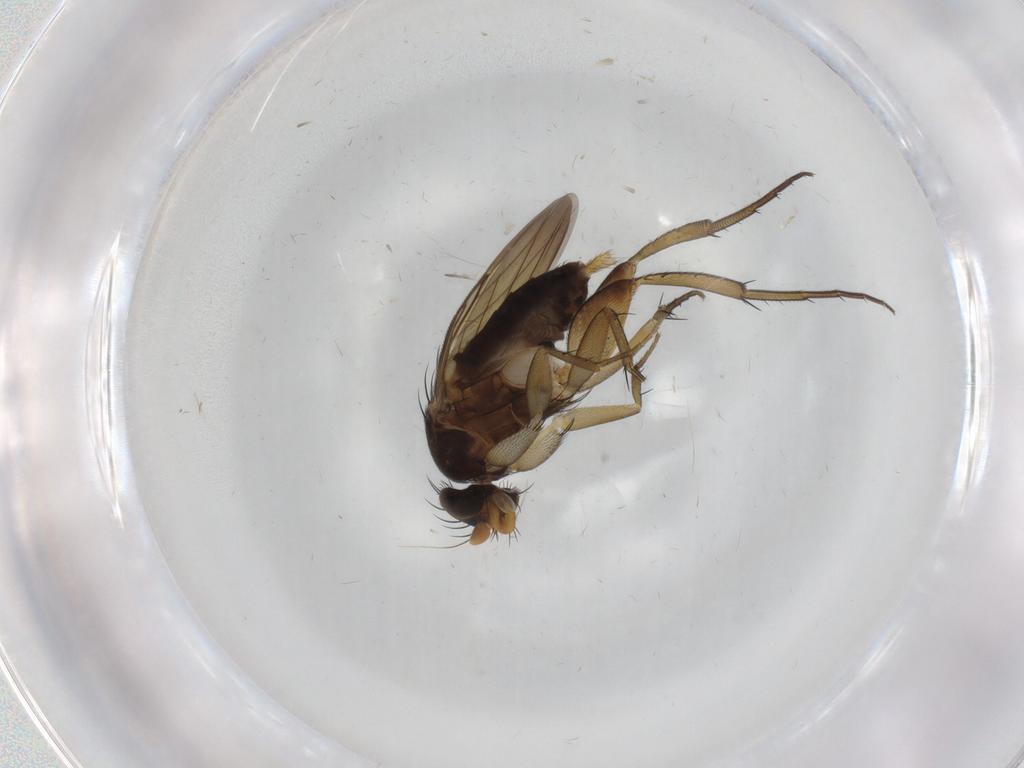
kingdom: Animalia
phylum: Arthropoda
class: Insecta
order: Diptera
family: Phoridae
